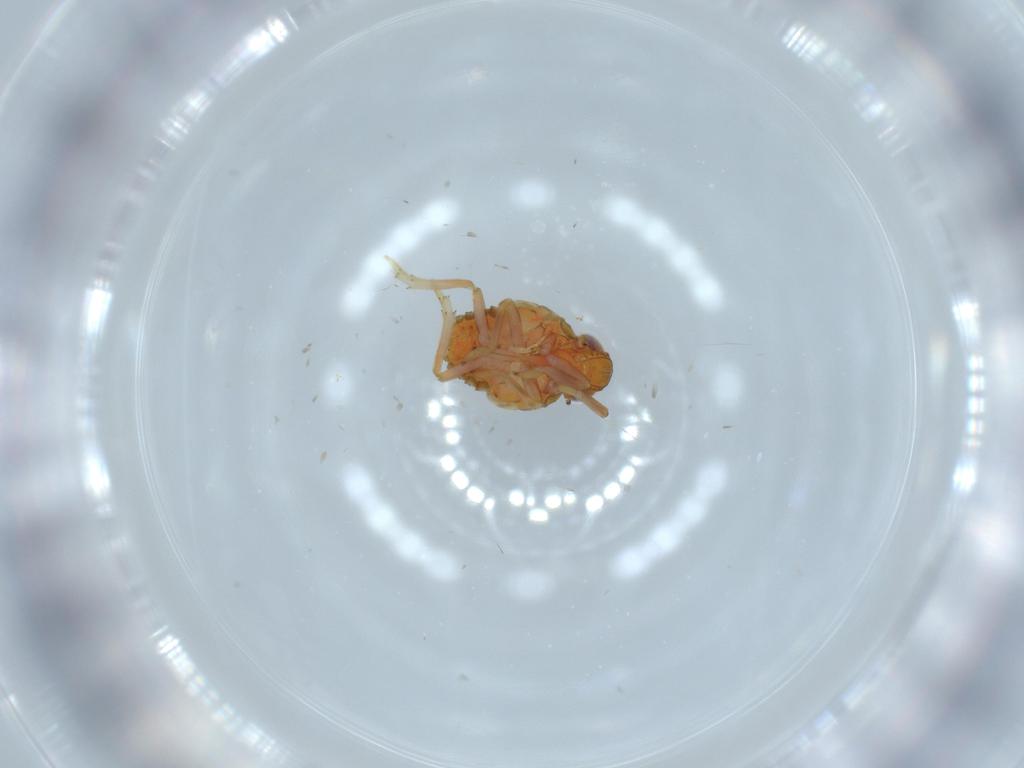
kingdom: Animalia
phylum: Arthropoda
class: Insecta
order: Hemiptera
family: Issidae
